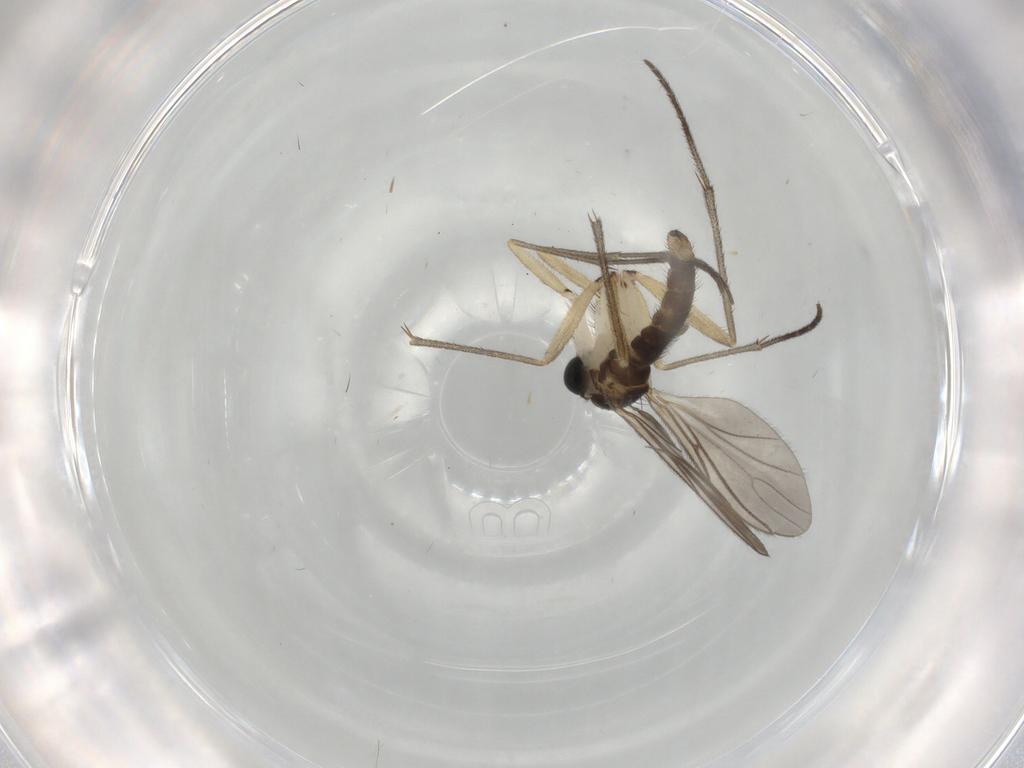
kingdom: Animalia
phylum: Arthropoda
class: Insecta
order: Diptera
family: Sciaridae
